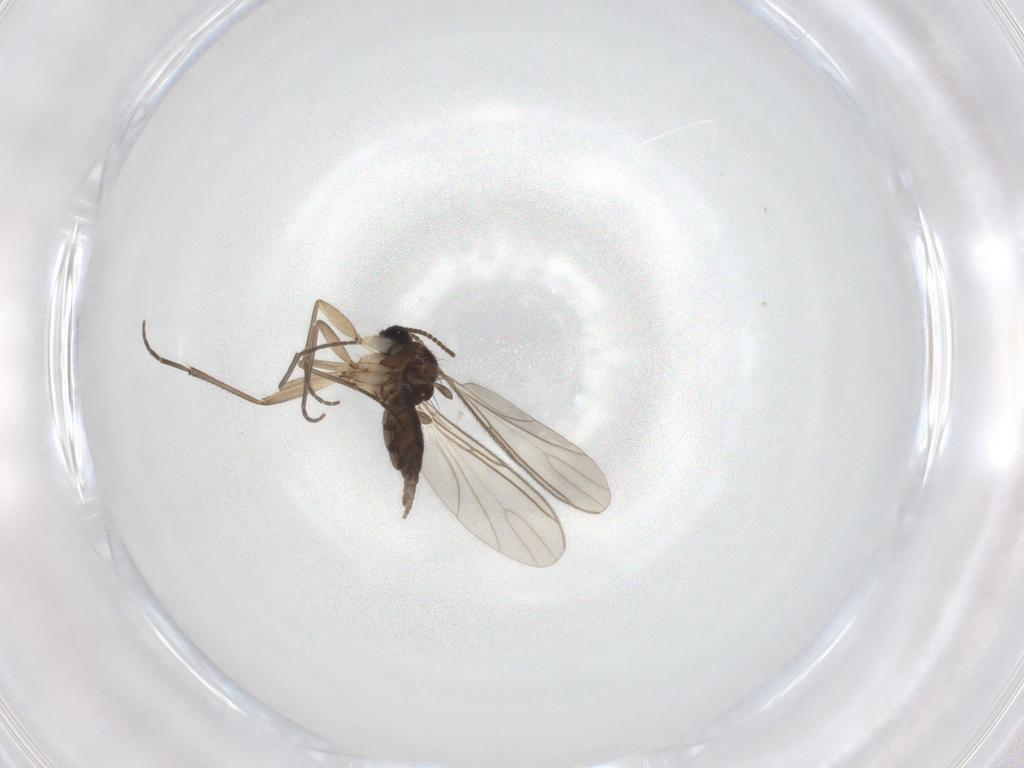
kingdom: Animalia
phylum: Arthropoda
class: Insecta
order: Diptera
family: Sciaridae
